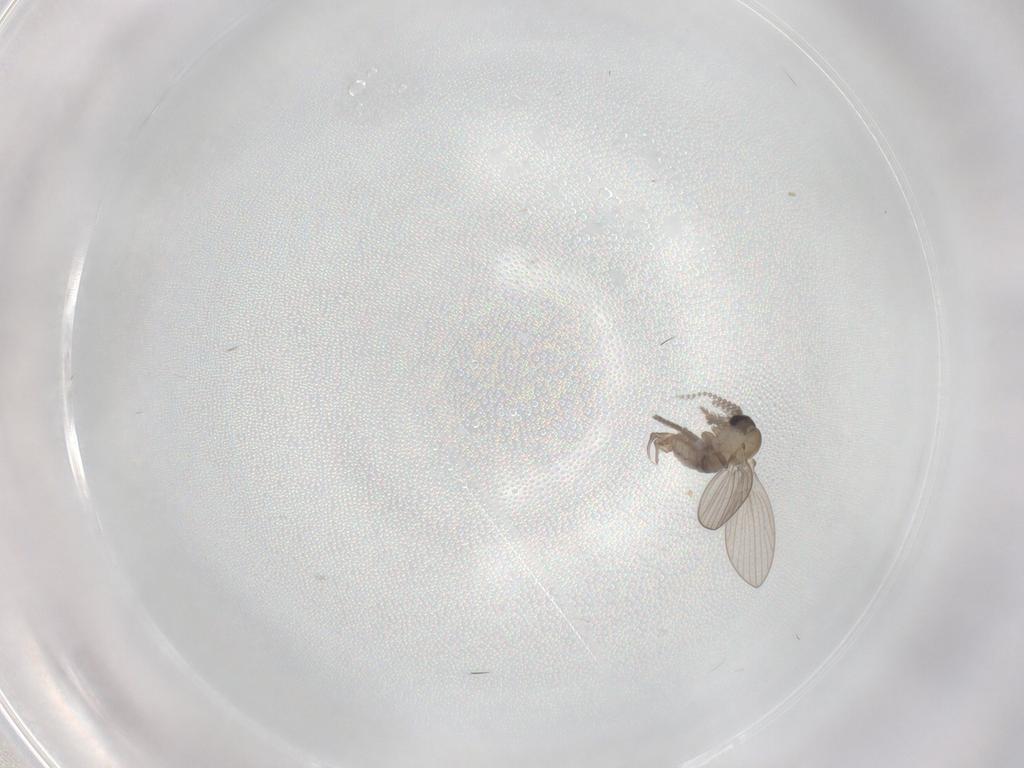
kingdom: Animalia
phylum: Arthropoda
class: Insecta
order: Diptera
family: Psychodidae
